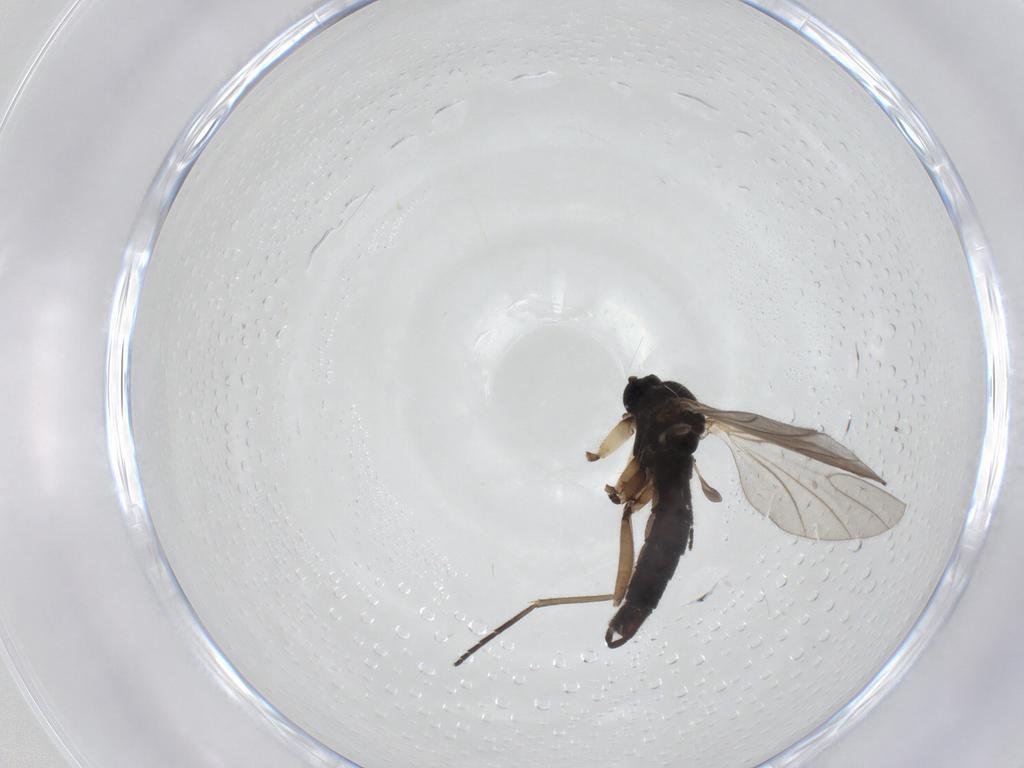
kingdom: Animalia
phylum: Arthropoda
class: Insecta
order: Diptera
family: Sciaridae
